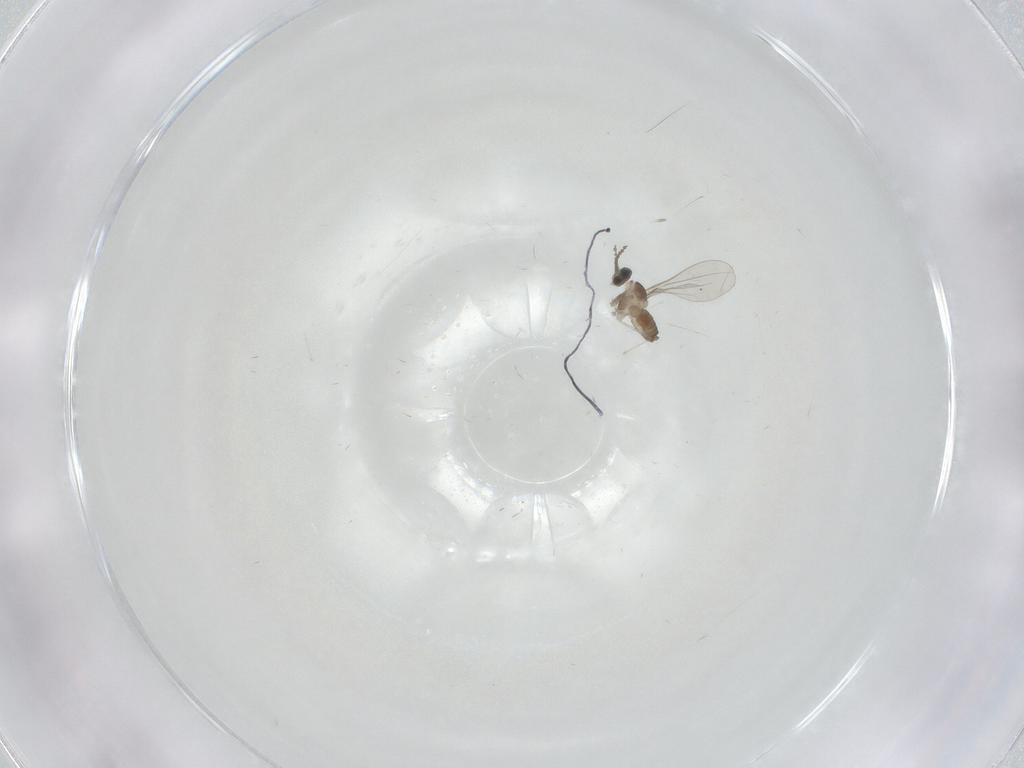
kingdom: Animalia
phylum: Arthropoda
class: Insecta
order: Diptera
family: Cecidomyiidae
